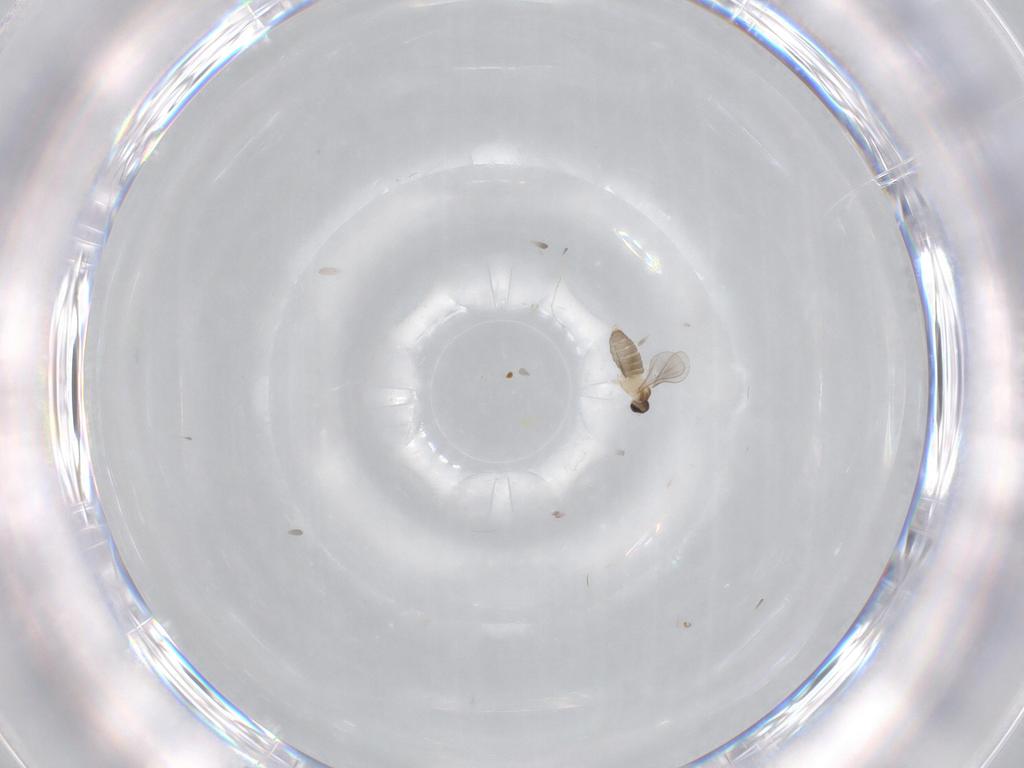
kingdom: Animalia
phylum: Arthropoda
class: Insecta
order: Diptera
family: Cecidomyiidae
